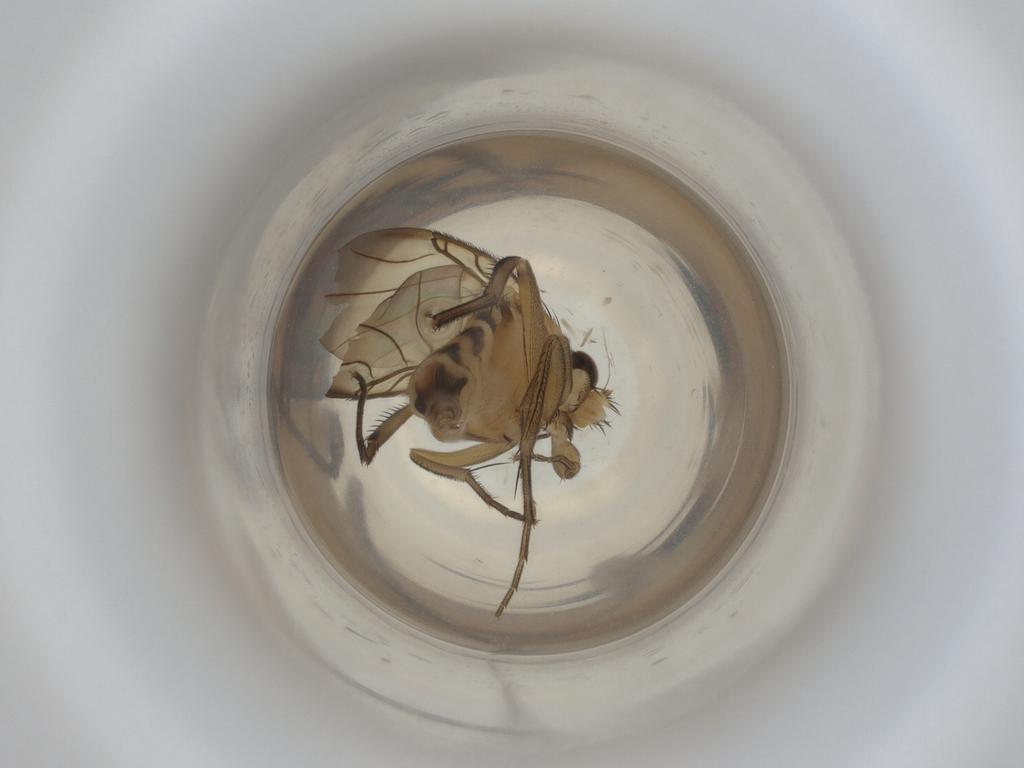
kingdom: Animalia
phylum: Arthropoda
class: Insecta
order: Diptera
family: Phoridae
